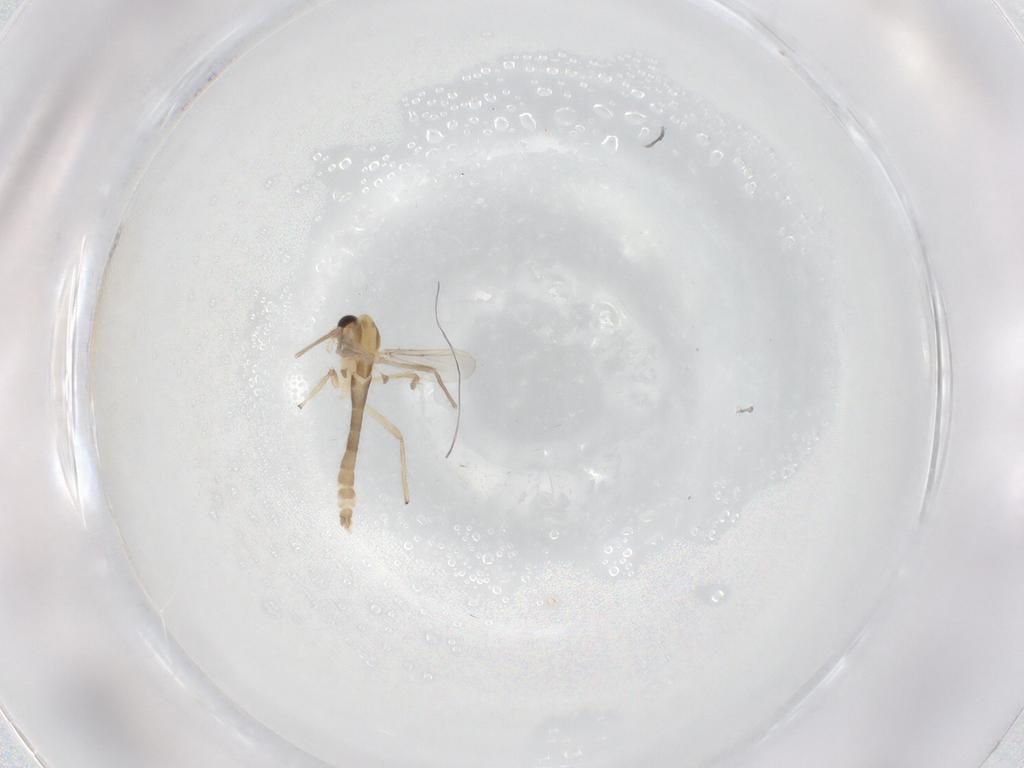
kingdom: Animalia
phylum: Arthropoda
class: Insecta
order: Diptera
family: Chironomidae
